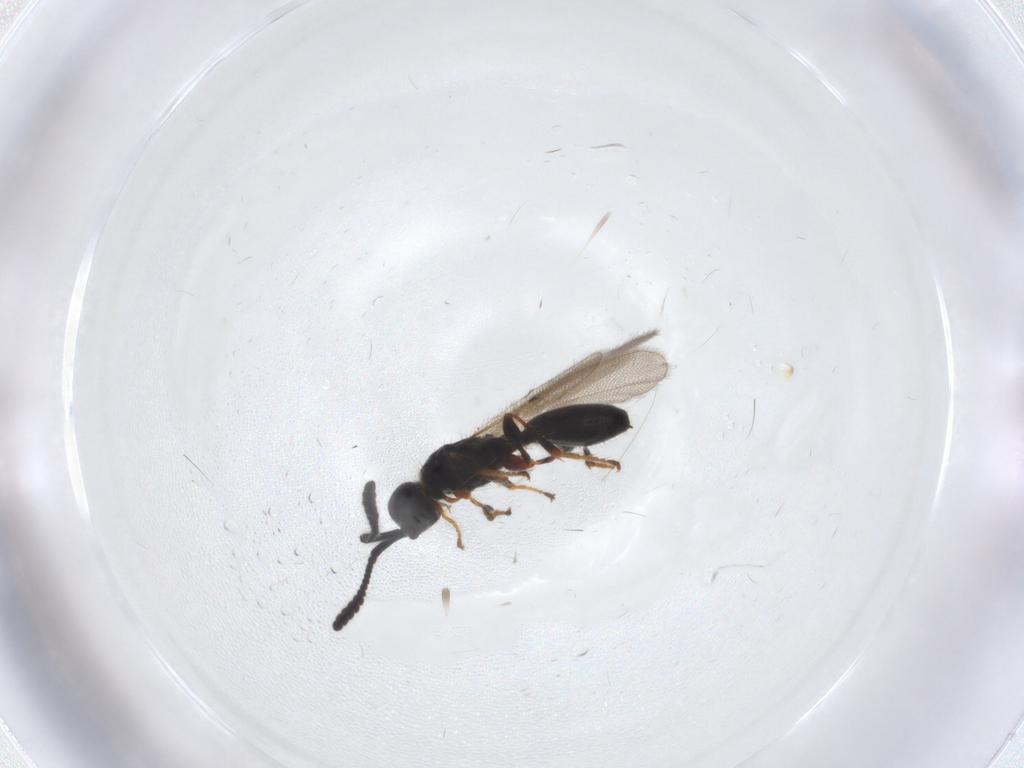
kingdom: Animalia
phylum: Arthropoda
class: Insecta
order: Hymenoptera
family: Diapriidae
